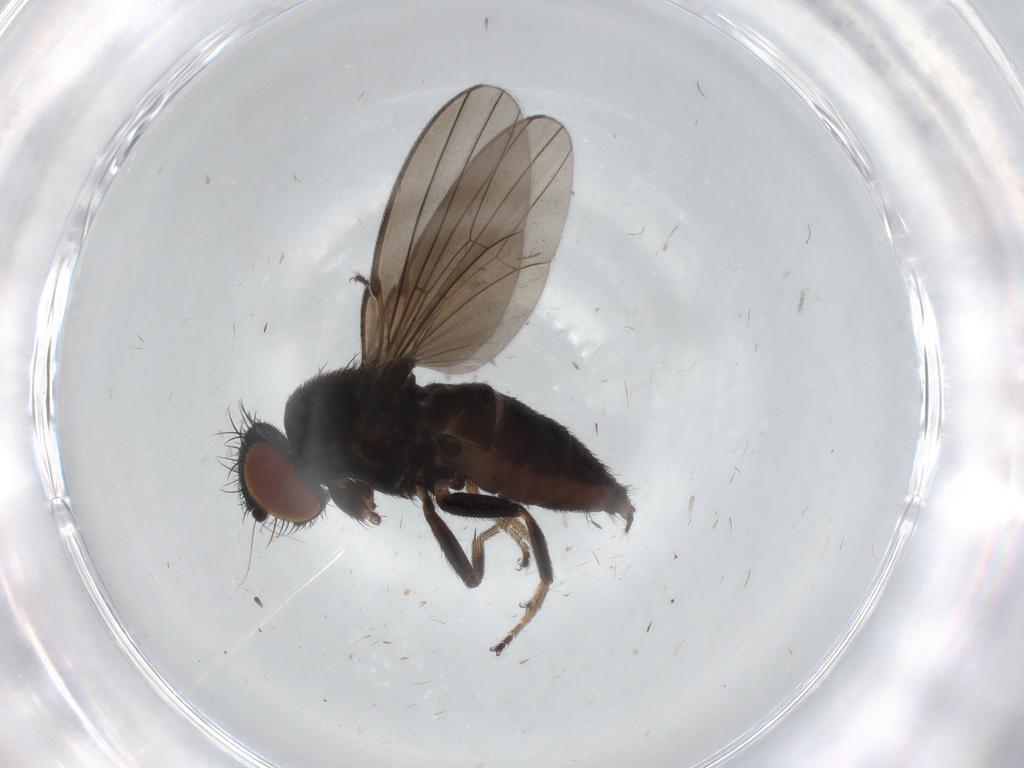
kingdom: Animalia
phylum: Arthropoda
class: Insecta
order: Diptera
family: Milichiidae
